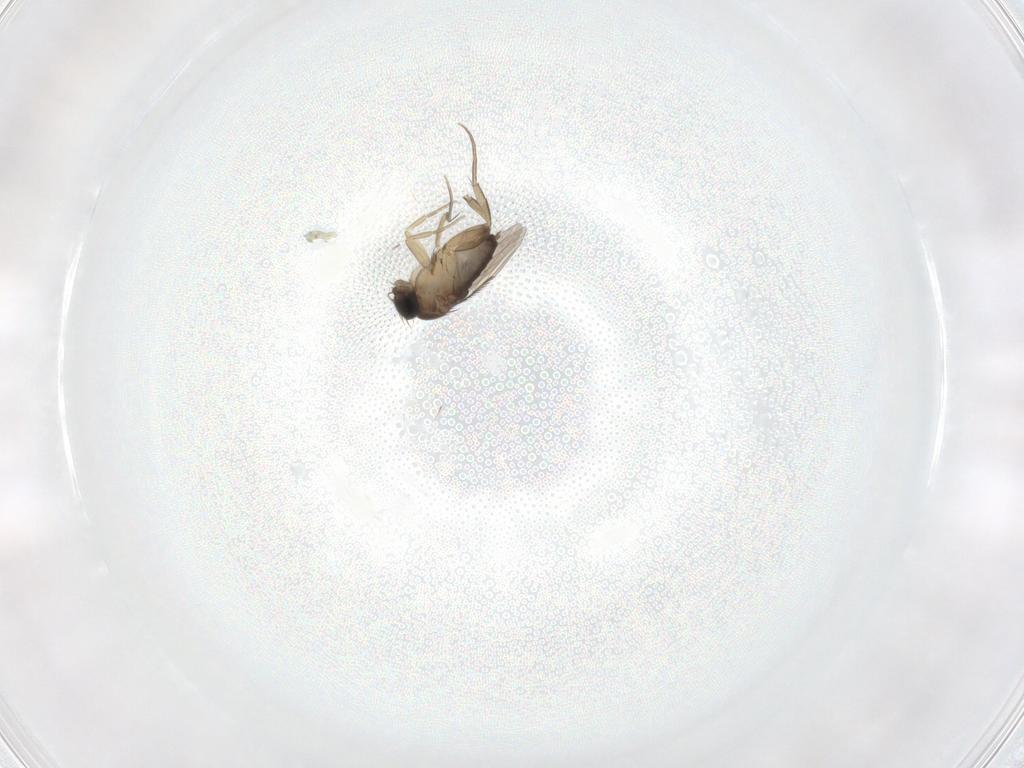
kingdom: Animalia
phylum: Arthropoda
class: Insecta
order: Diptera
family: Phoridae
